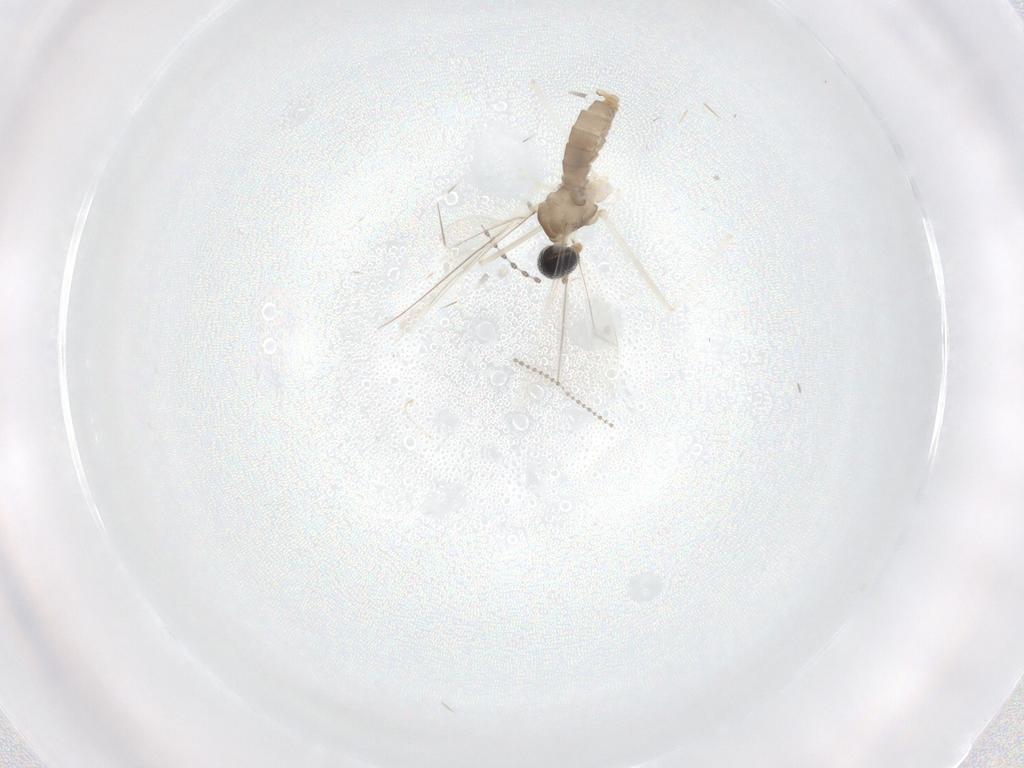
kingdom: Animalia
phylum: Arthropoda
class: Insecta
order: Diptera
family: Cecidomyiidae
